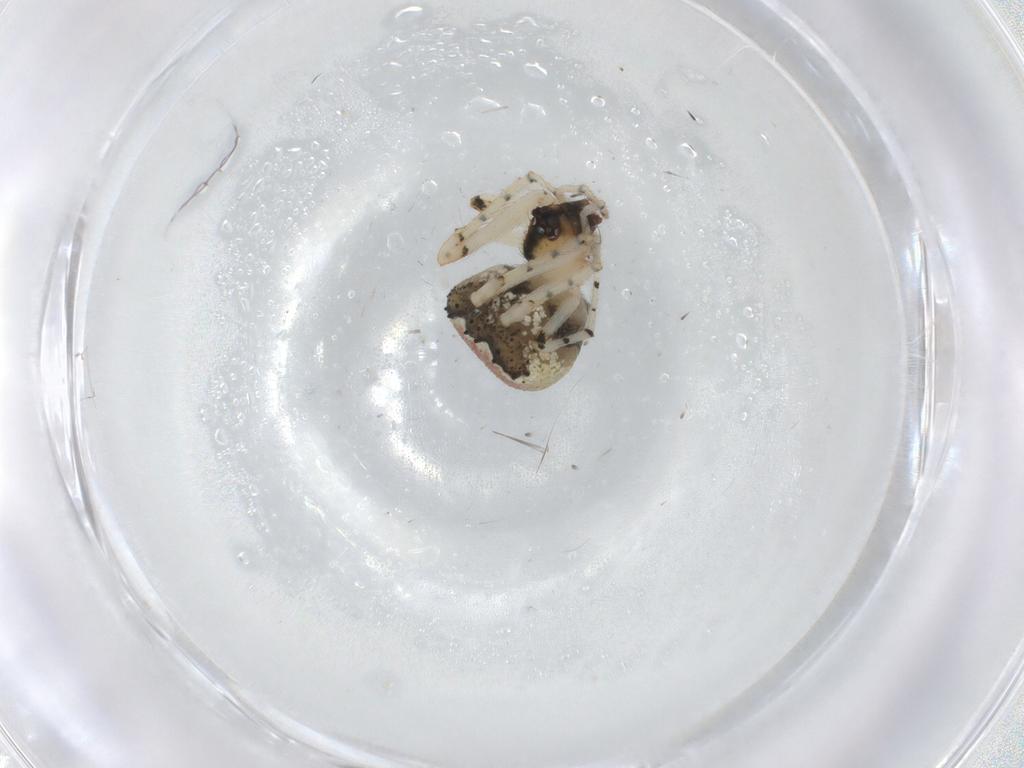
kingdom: Animalia
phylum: Arthropoda
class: Arachnida
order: Araneae
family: Theridiidae
